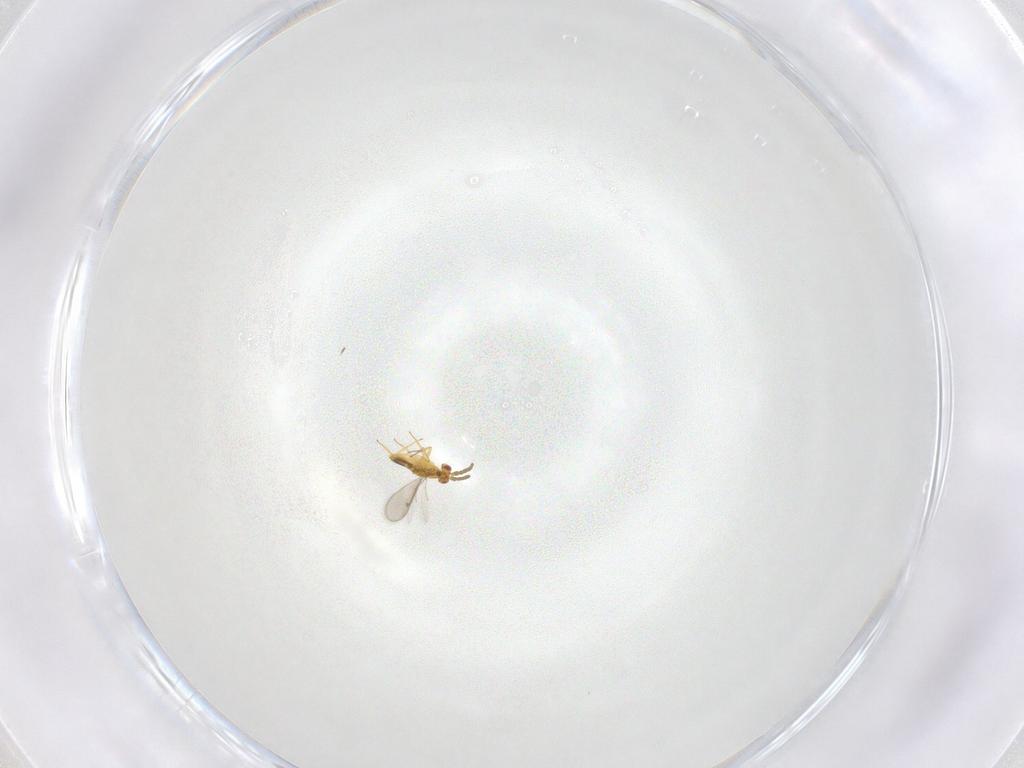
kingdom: Animalia
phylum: Arthropoda
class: Insecta
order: Hymenoptera
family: Aphelinidae
